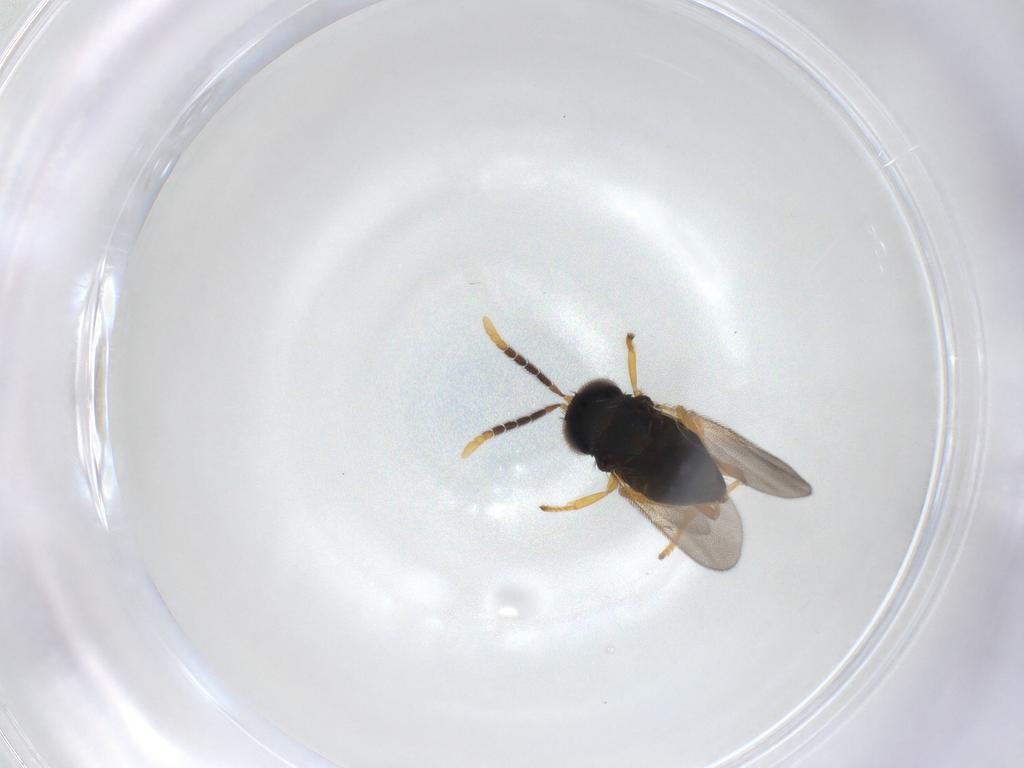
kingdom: Animalia
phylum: Arthropoda
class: Insecta
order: Hymenoptera
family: Encyrtidae
